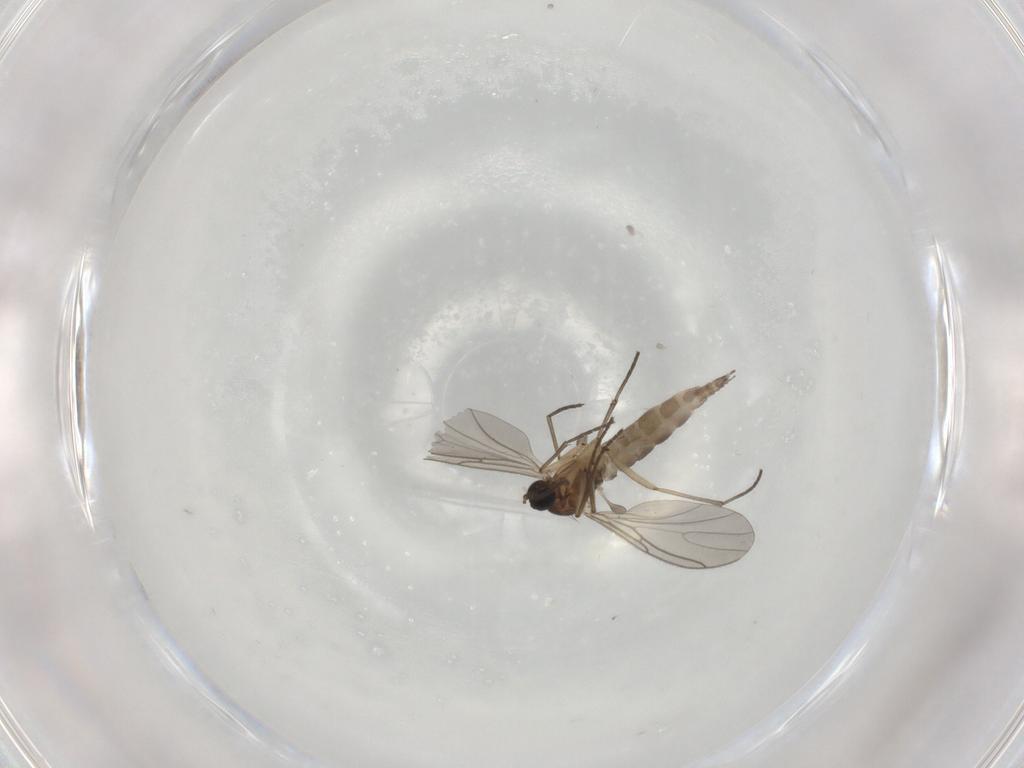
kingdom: Animalia
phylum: Arthropoda
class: Insecta
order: Diptera
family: Sciaridae
